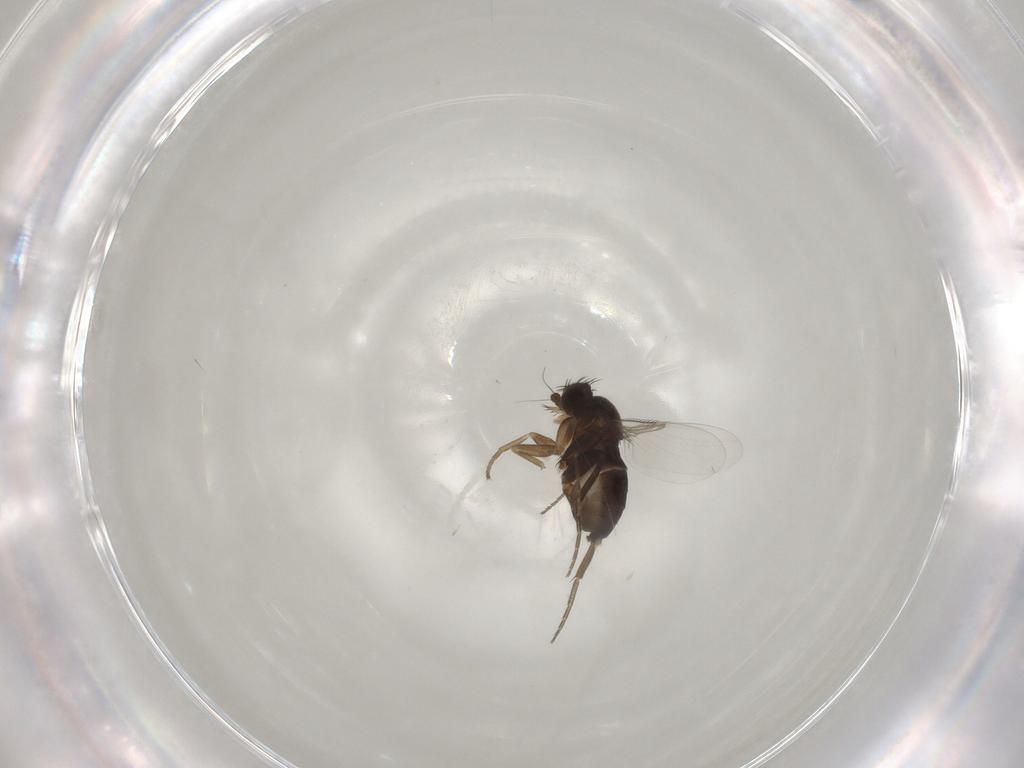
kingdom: Animalia
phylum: Arthropoda
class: Insecta
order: Diptera
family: Phoridae
